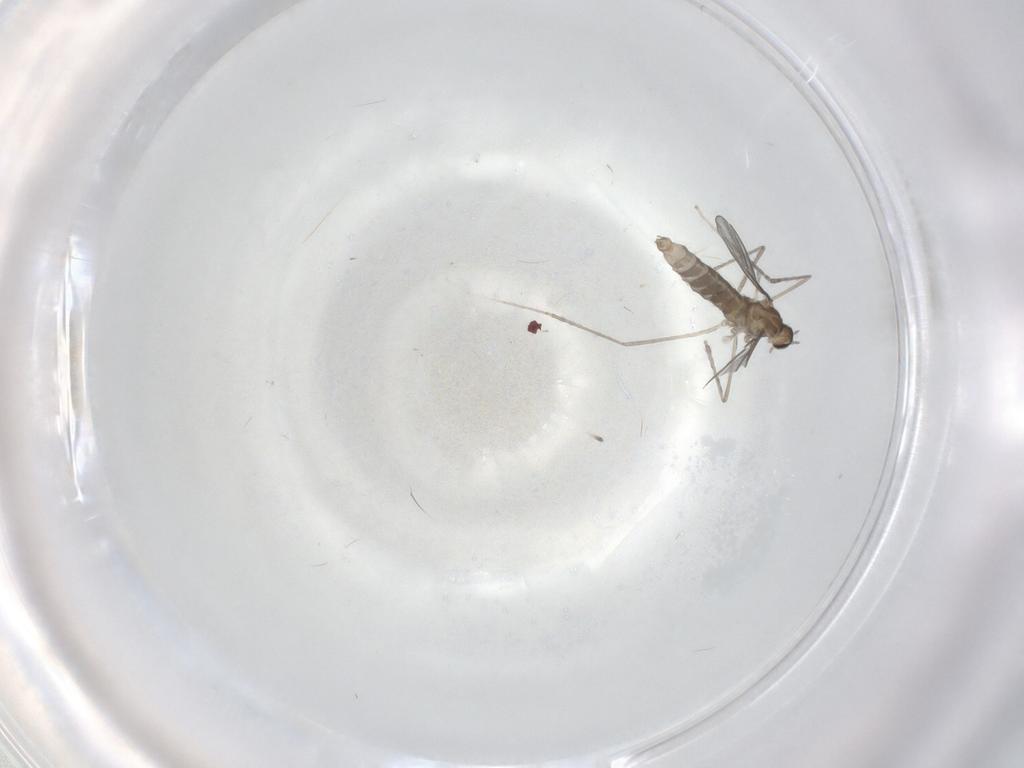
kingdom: Animalia
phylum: Arthropoda
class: Insecta
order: Diptera
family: Cecidomyiidae
